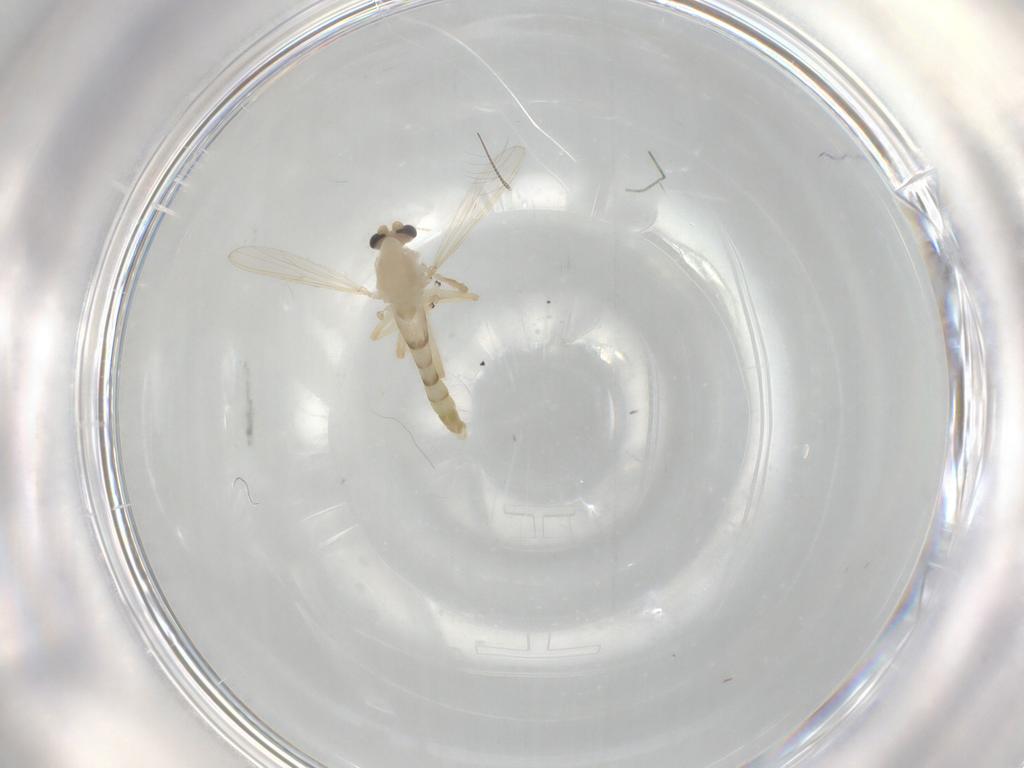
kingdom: Animalia
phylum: Arthropoda
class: Insecta
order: Diptera
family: Chironomidae
